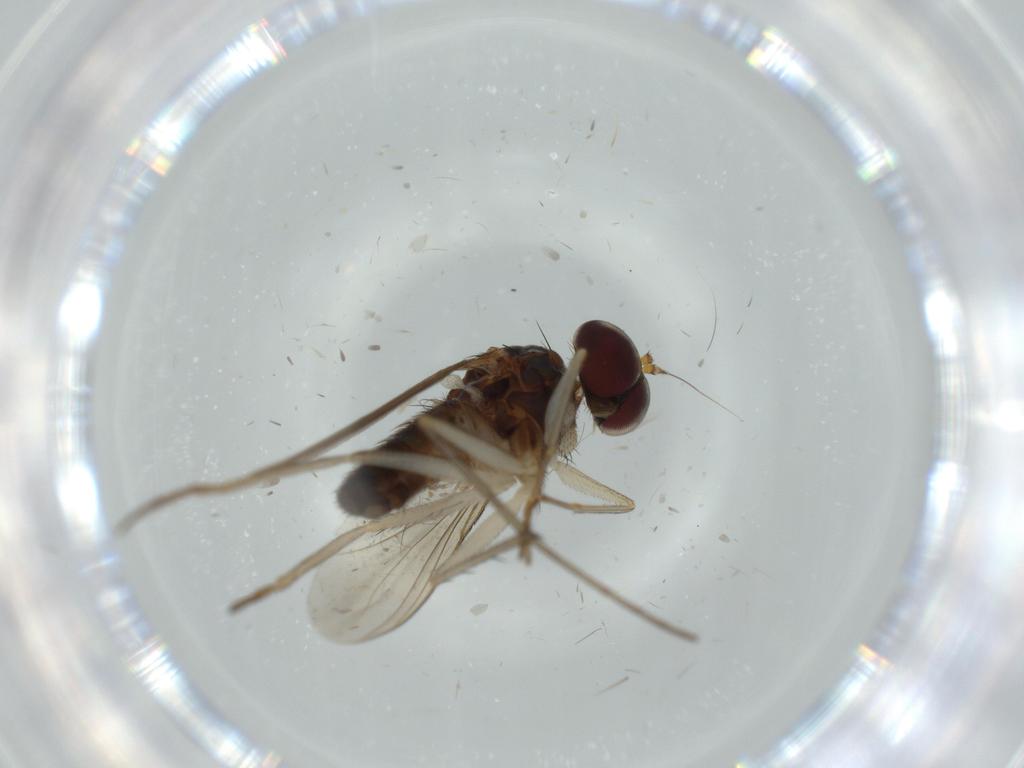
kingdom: Animalia
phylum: Arthropoda
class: Insecta
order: Diptera
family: Dolichopodidae
